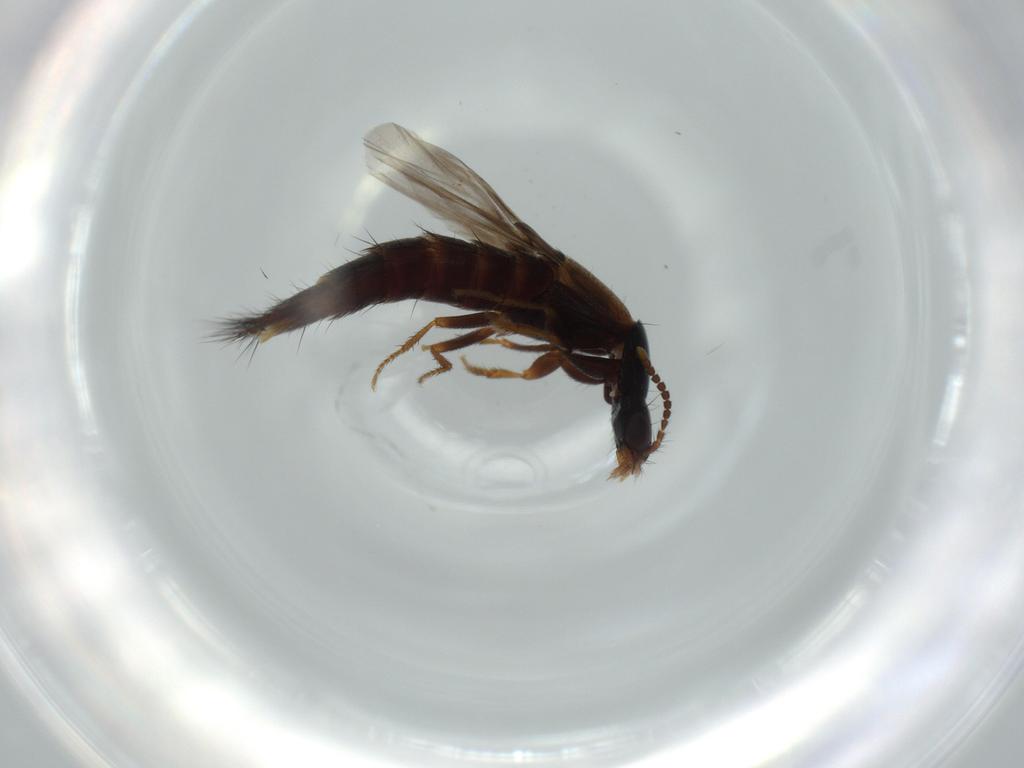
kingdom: Animalia
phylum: Arthropoda
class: Insecta
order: Coleoptera
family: Staphylinidae
